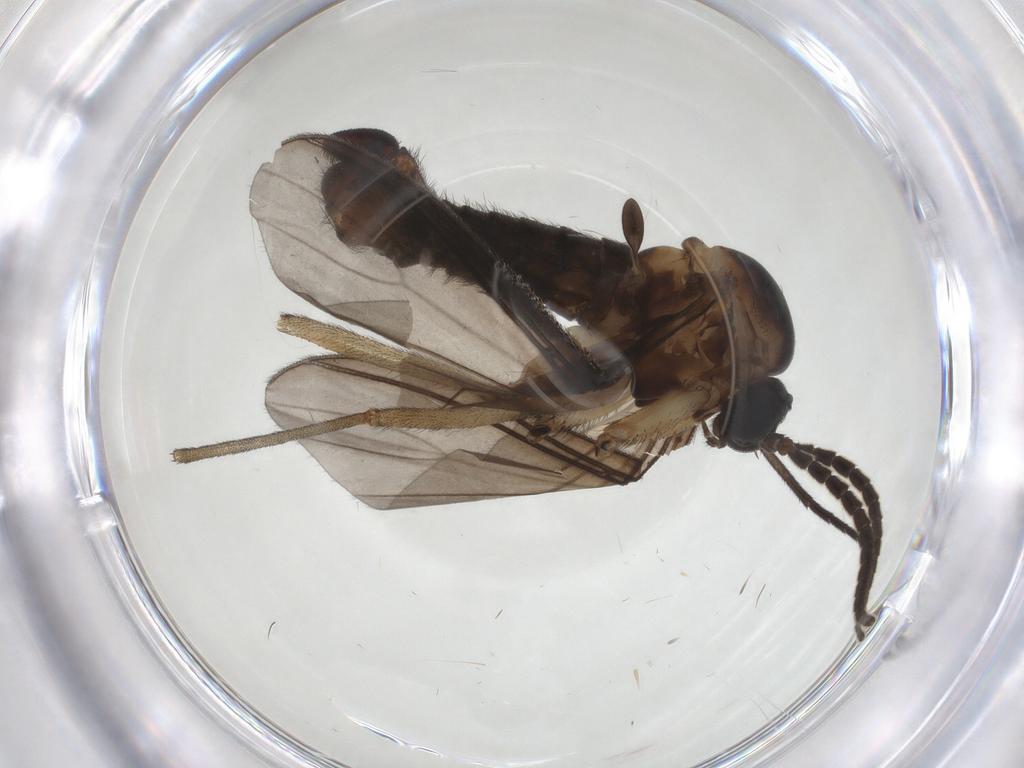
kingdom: Animalia
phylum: Arthropoda
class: Insecta
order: Diptera
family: Sciaridae
